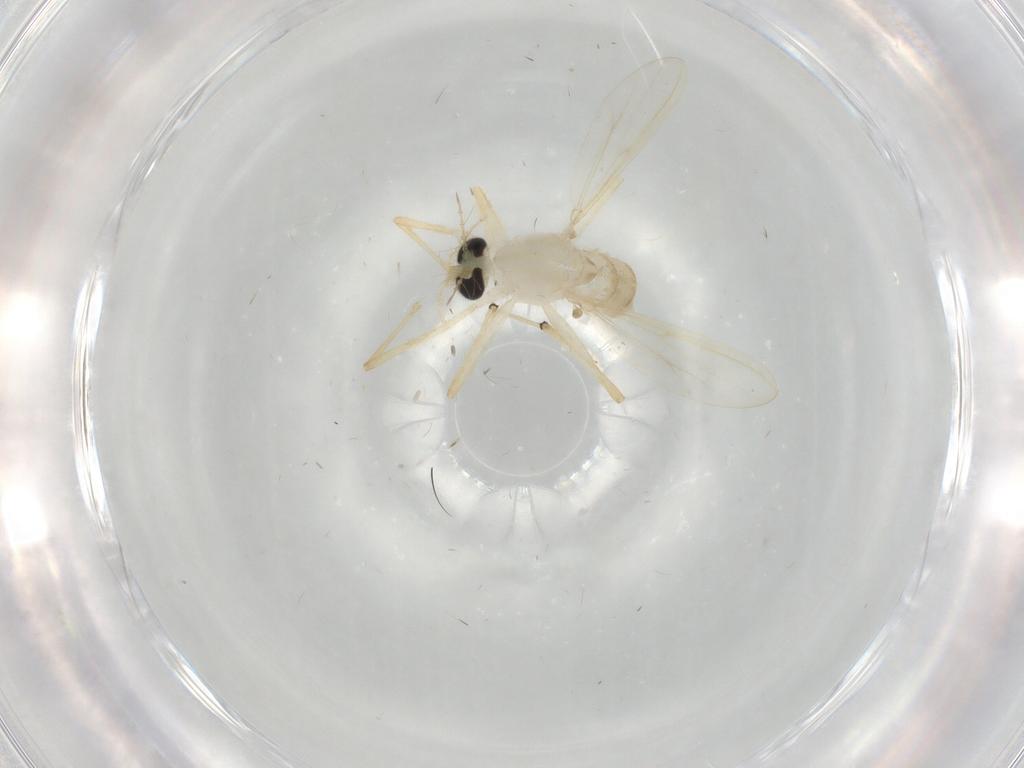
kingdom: Animalia
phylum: Arthropoda
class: Insecta
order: Diptera
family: Chironomidae
